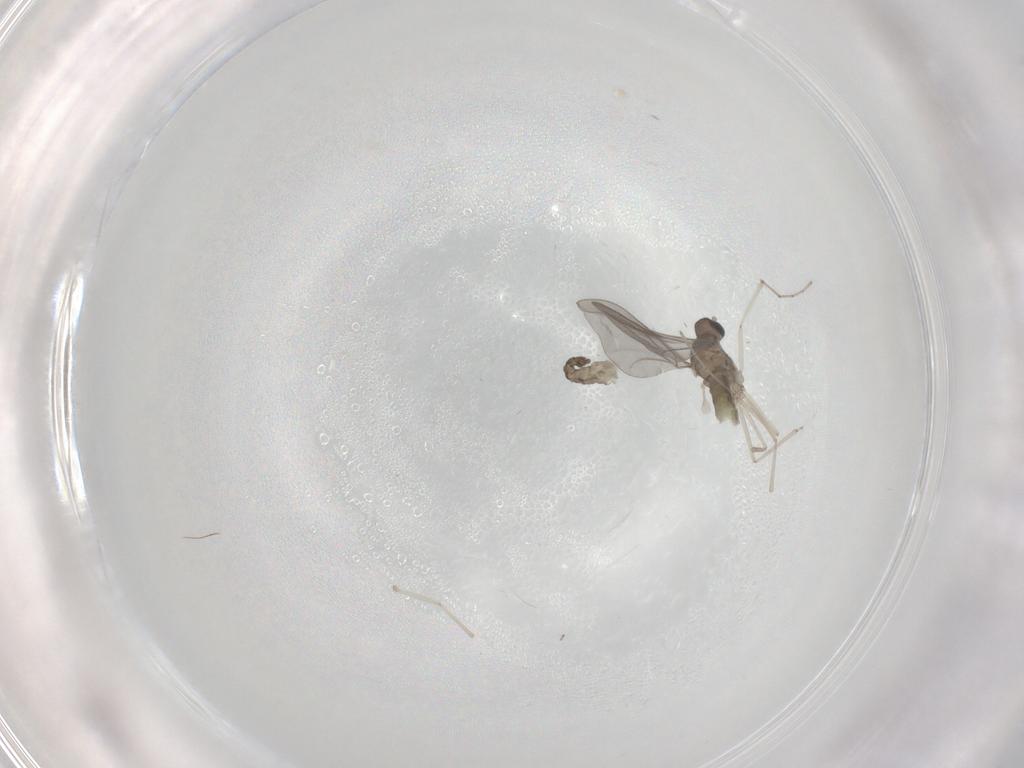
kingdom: Animalia
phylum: Arthropoda
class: Insecta
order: Diptera
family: Cecidomyiidae
